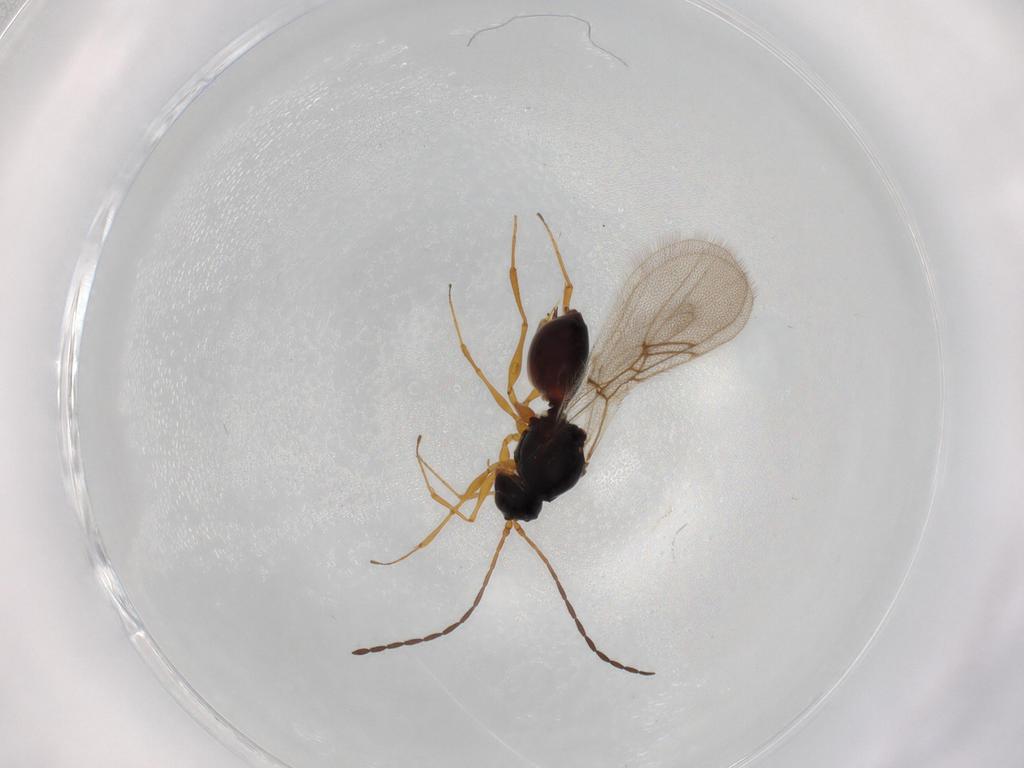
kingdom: Animalia
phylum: Arthropoda
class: Insecta
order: Hymenoptera
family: Figitidae
